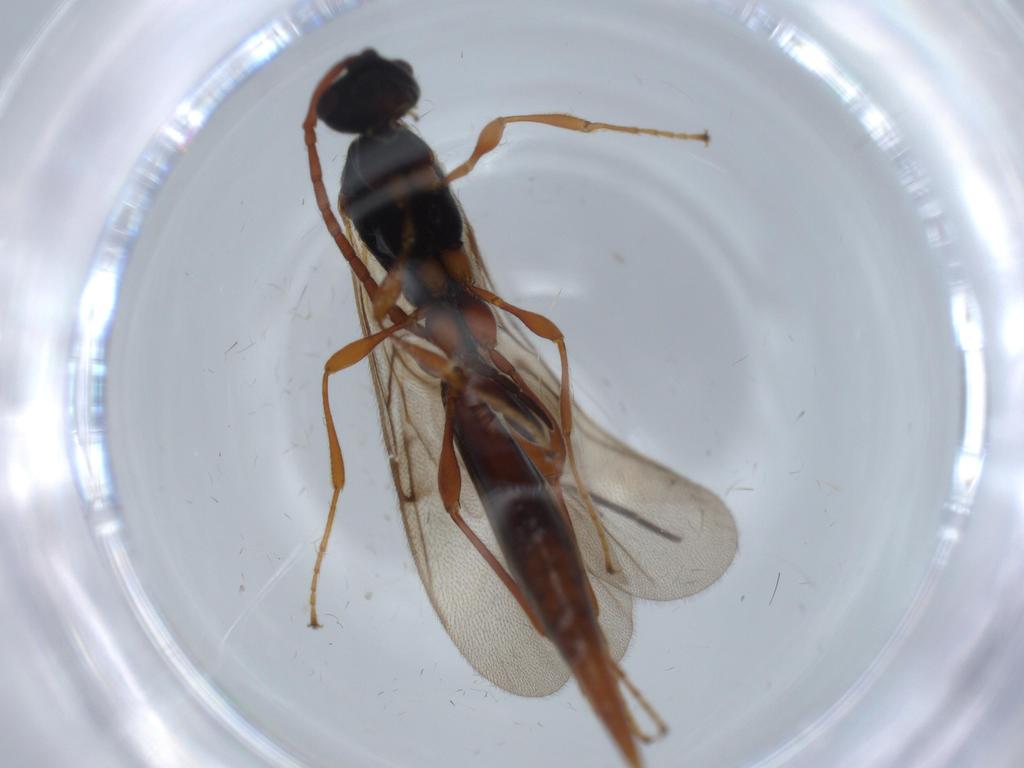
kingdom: Animalia
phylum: Arthropoda
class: Insecta
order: Hymenoptera
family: Diapriidae
